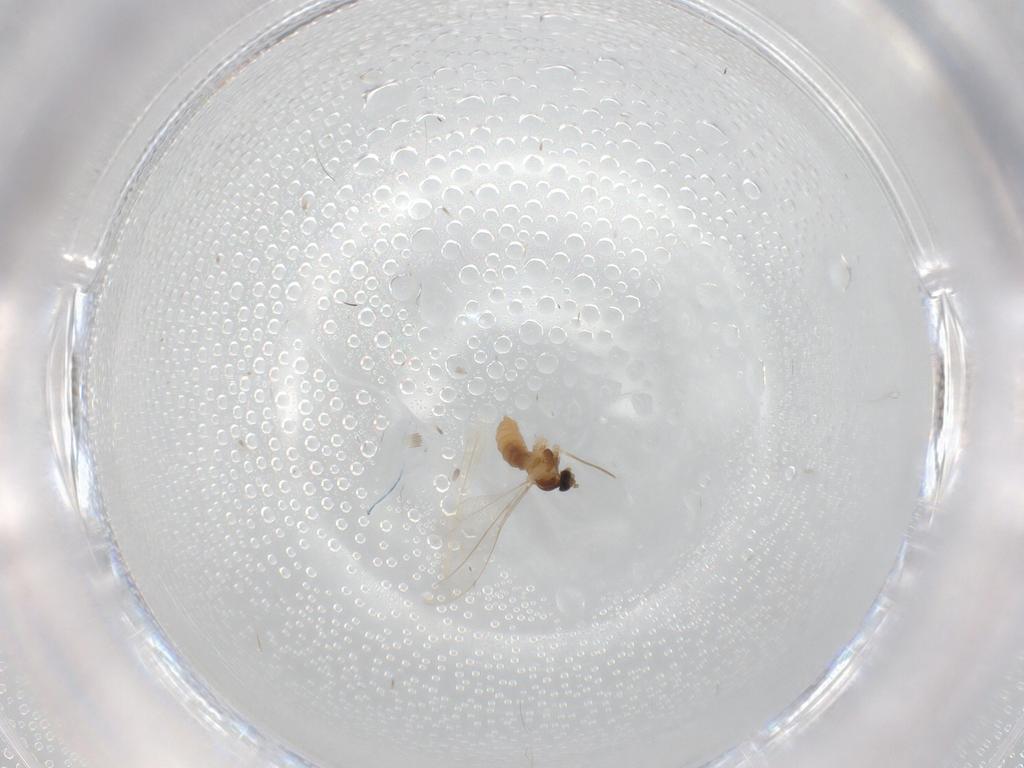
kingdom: Animalia
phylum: Arthropoda
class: Insecta
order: Diptera
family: Cecidomyiidae
